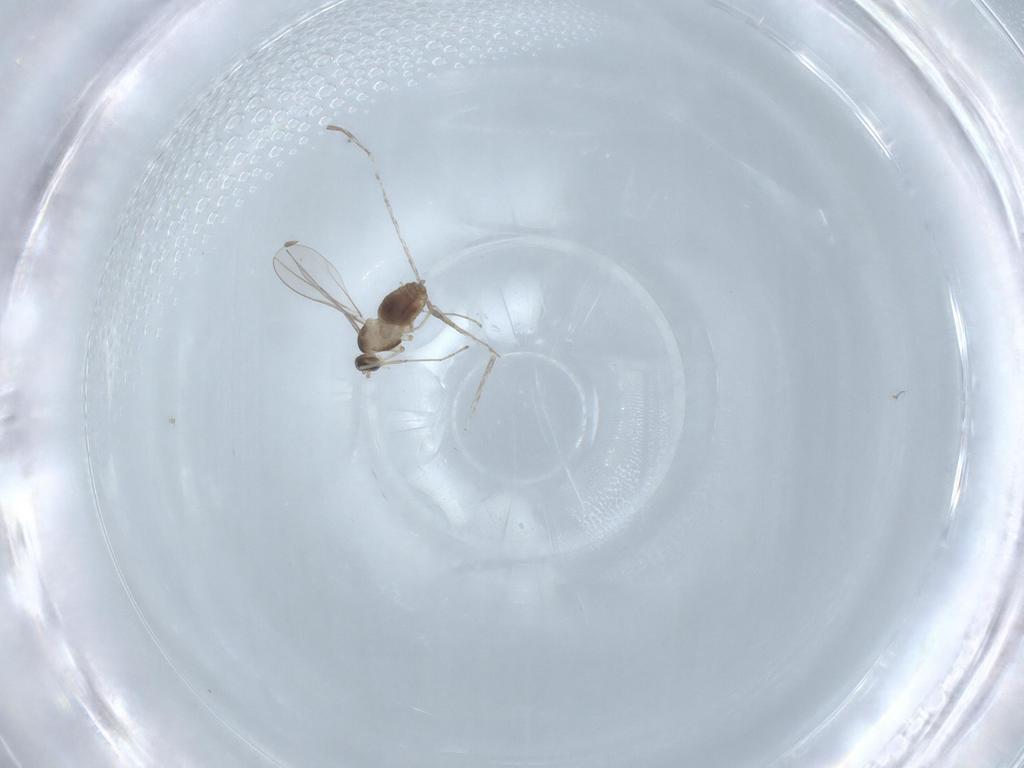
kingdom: Animalia
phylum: Arthropoda
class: Insecta
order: Diptera
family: Cecidomyiidae
